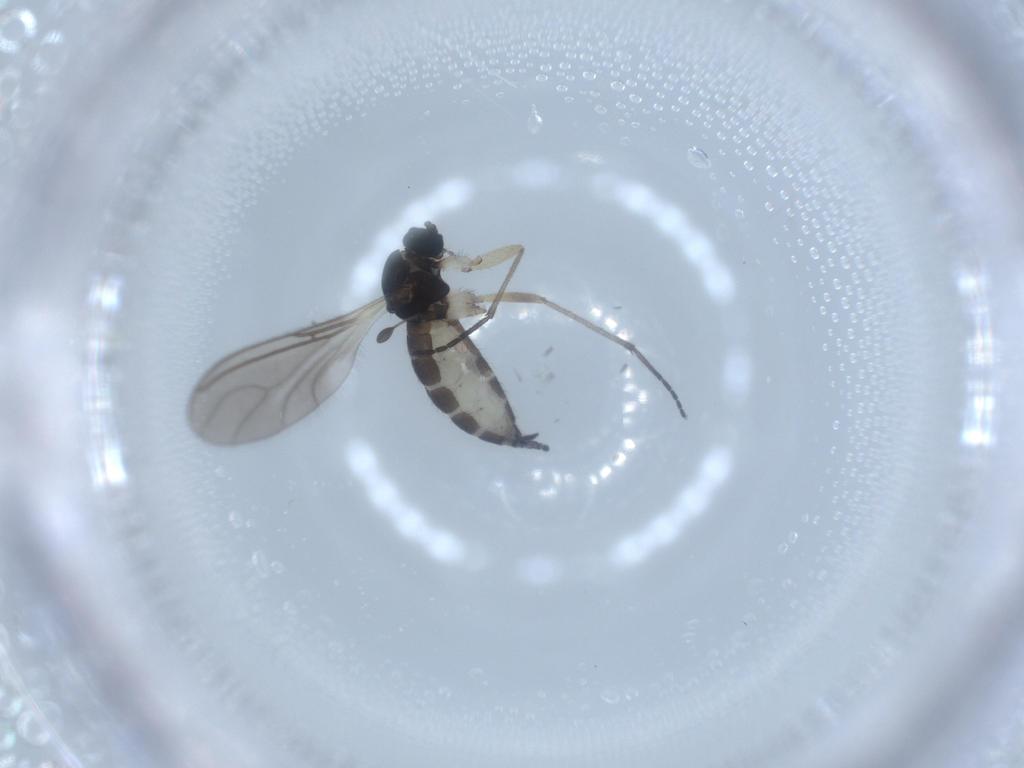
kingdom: Animalia
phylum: Arthropoda
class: Insecta
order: Diptera
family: Sciaridae
